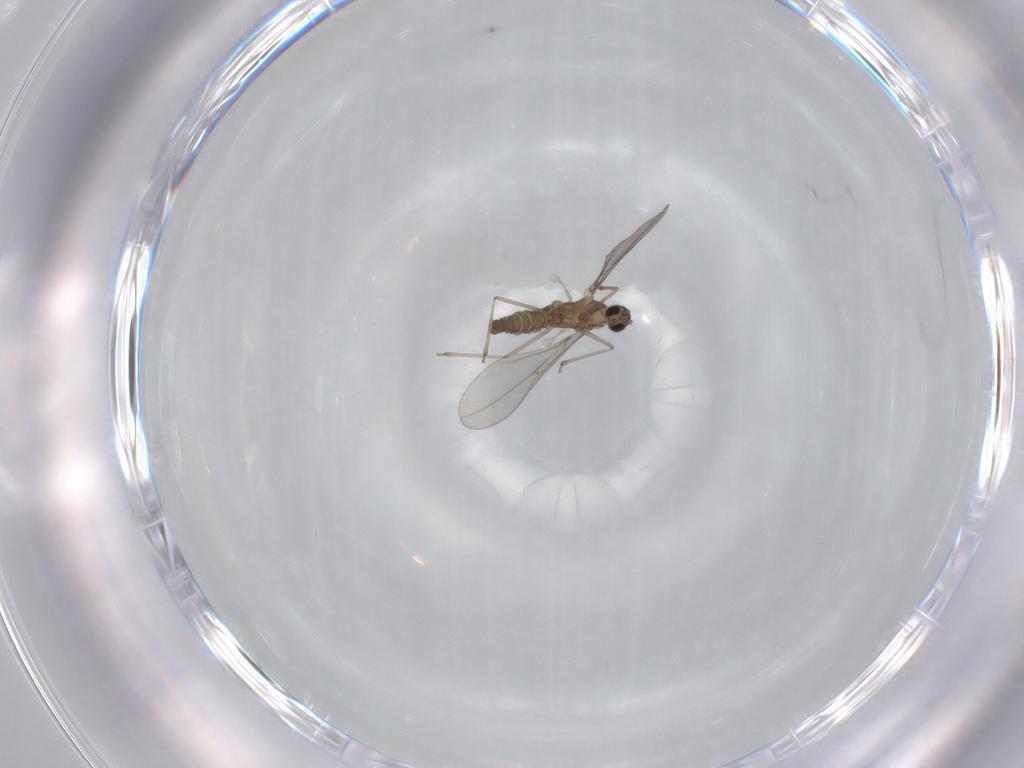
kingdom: Animalia
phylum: Arthropoda
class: Insecta
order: Diptera
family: Cecidomyiidae
